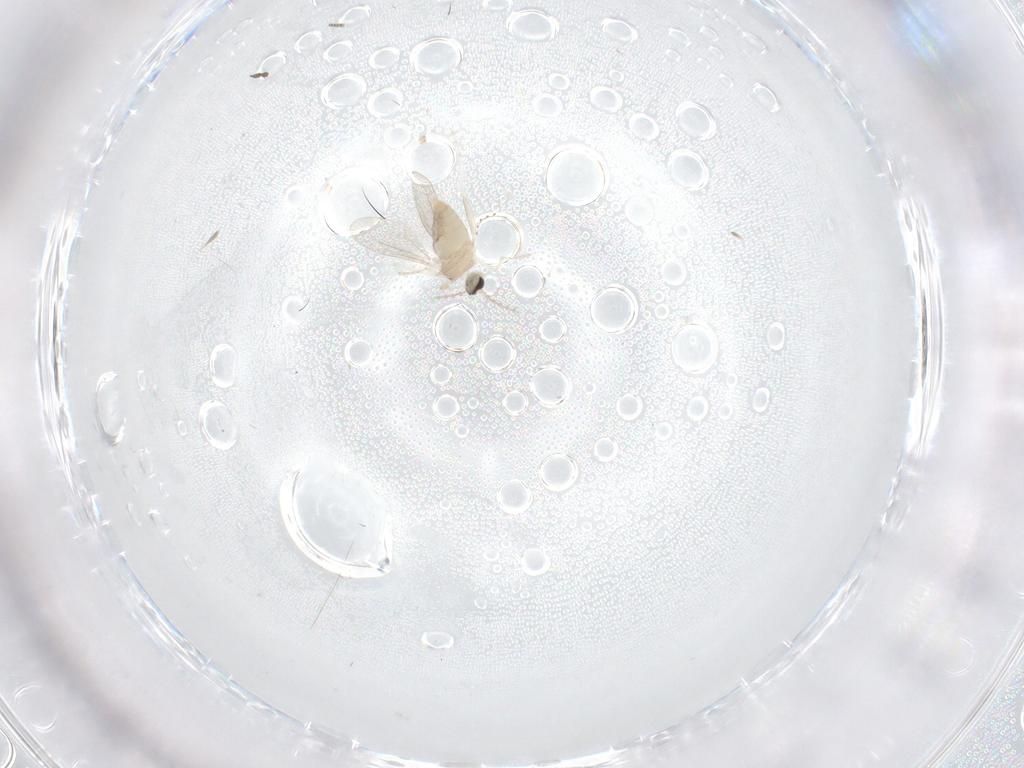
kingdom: Animalia
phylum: Arthropoda
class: Insecta
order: Diptera
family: Cecidomyiidae
